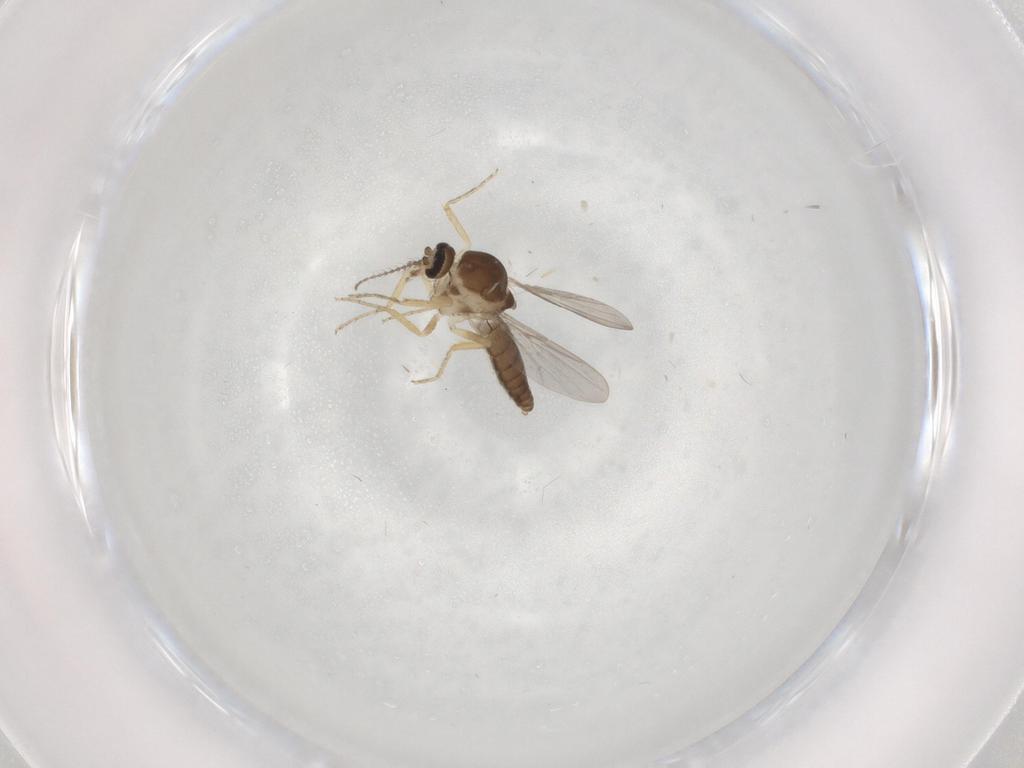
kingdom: Animalia
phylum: Arthropoda
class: Insecta
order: Diptera
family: Ceratopogonidae
